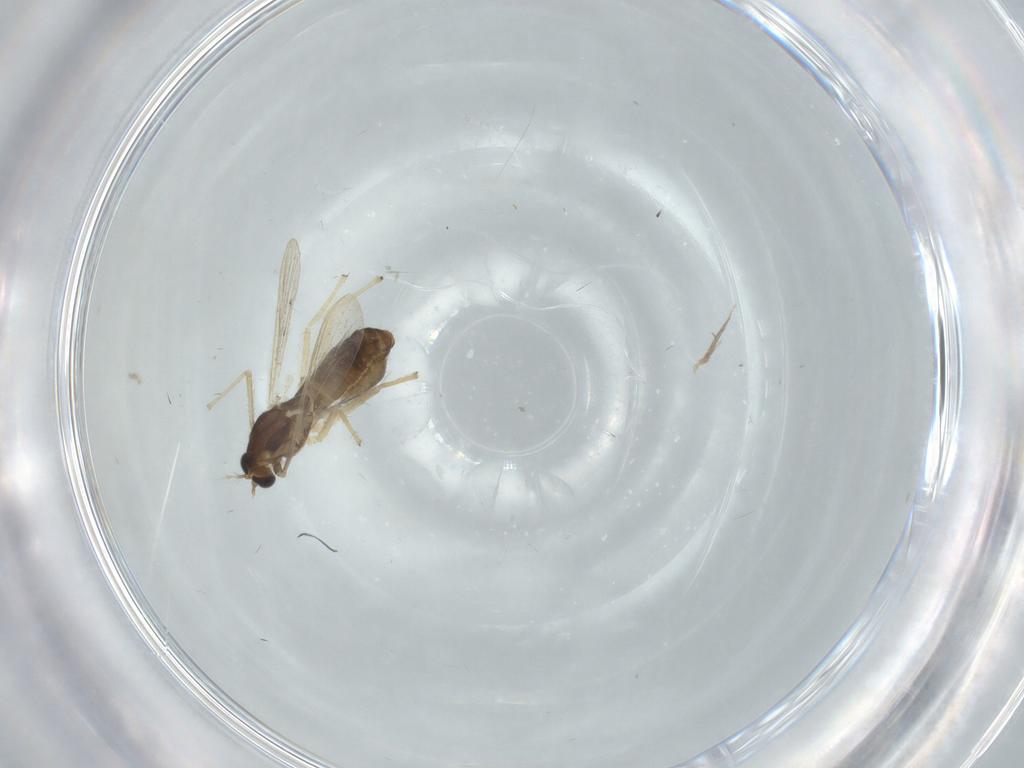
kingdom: Animalia
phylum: Arthropoda
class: Insecta
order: Diptera
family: Chironomidae
